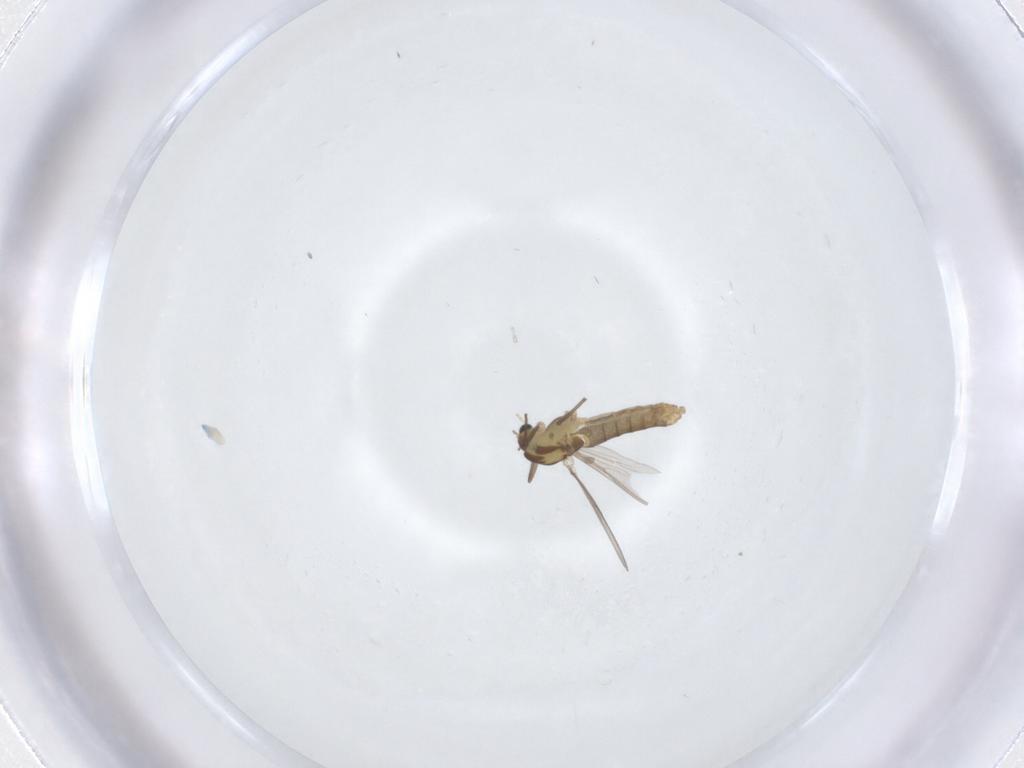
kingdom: Animalia
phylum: Arthropoda
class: Insecta
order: Diptera
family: Chironomidae
